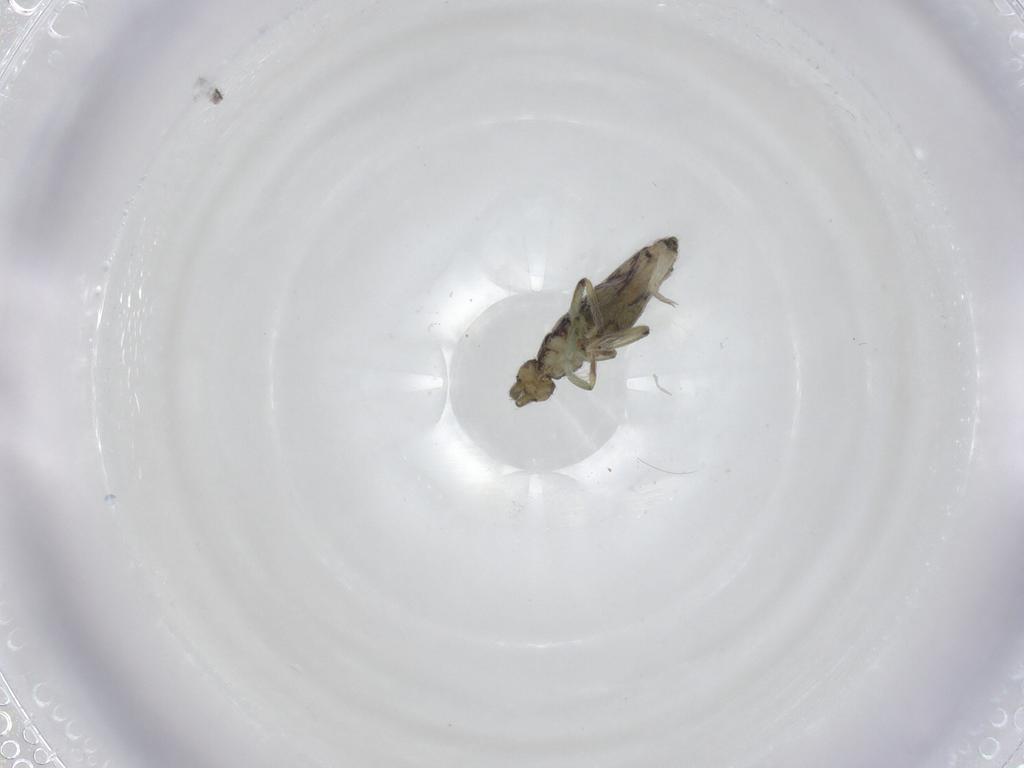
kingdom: Animalia
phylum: Arthropoda
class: Collembola
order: Entomobryomorpha
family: Entomobryidae
